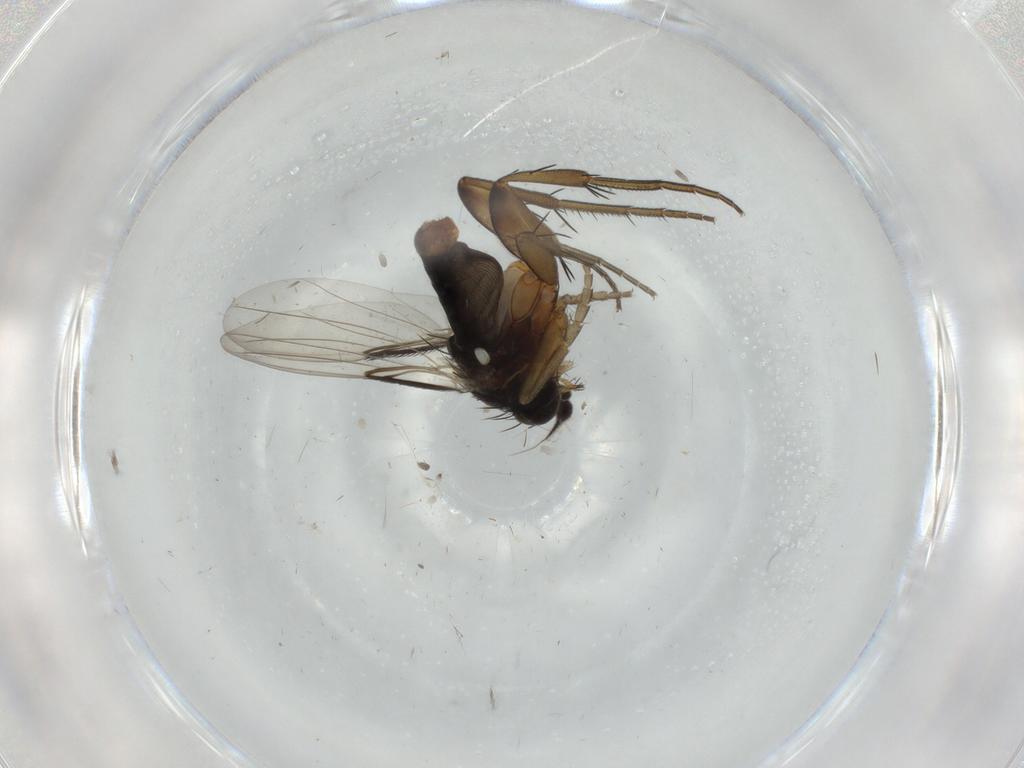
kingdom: Animalia
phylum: Arthropoda
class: Insecta
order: Diptera
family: Phoridae
